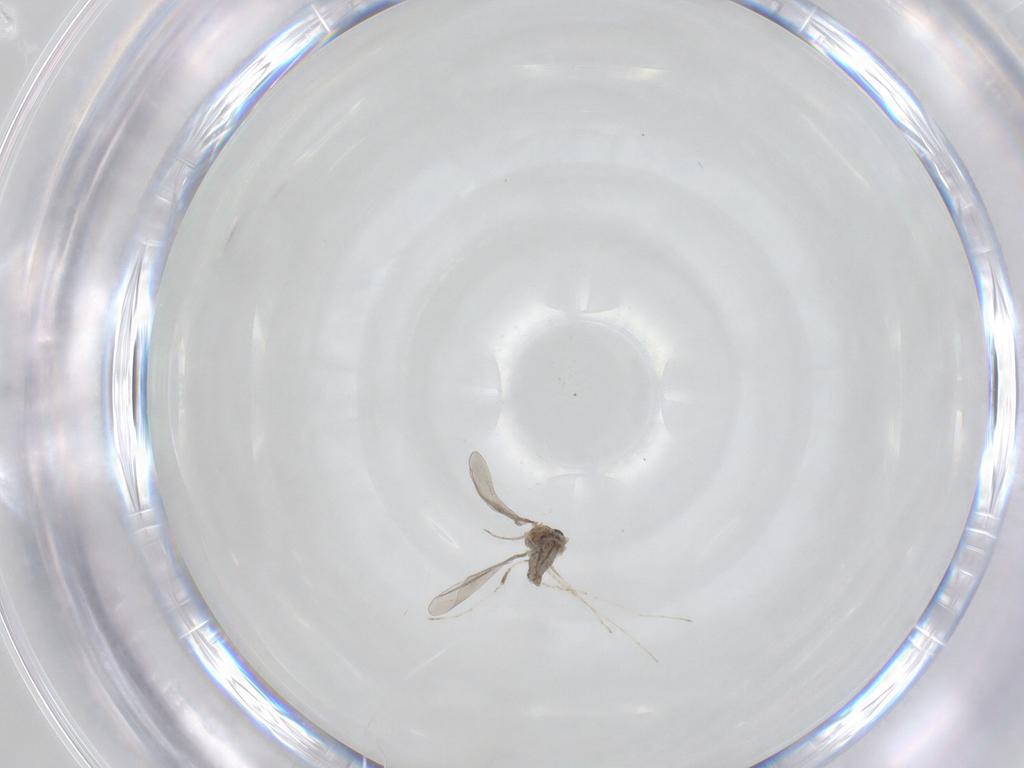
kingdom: Animalia
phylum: Arthropoda
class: Insecta
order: Diptera
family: Cecidomyiidae
